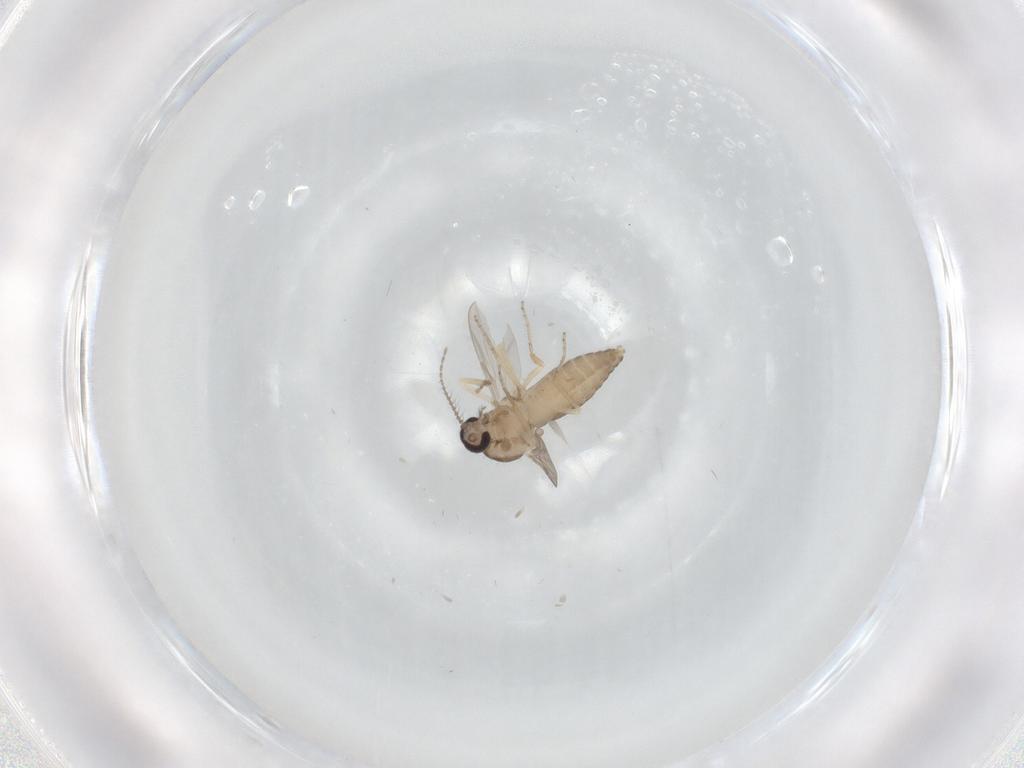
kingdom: Animalia
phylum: Arthropoda
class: Insecta
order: Diptera
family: Ceratopogonidae
